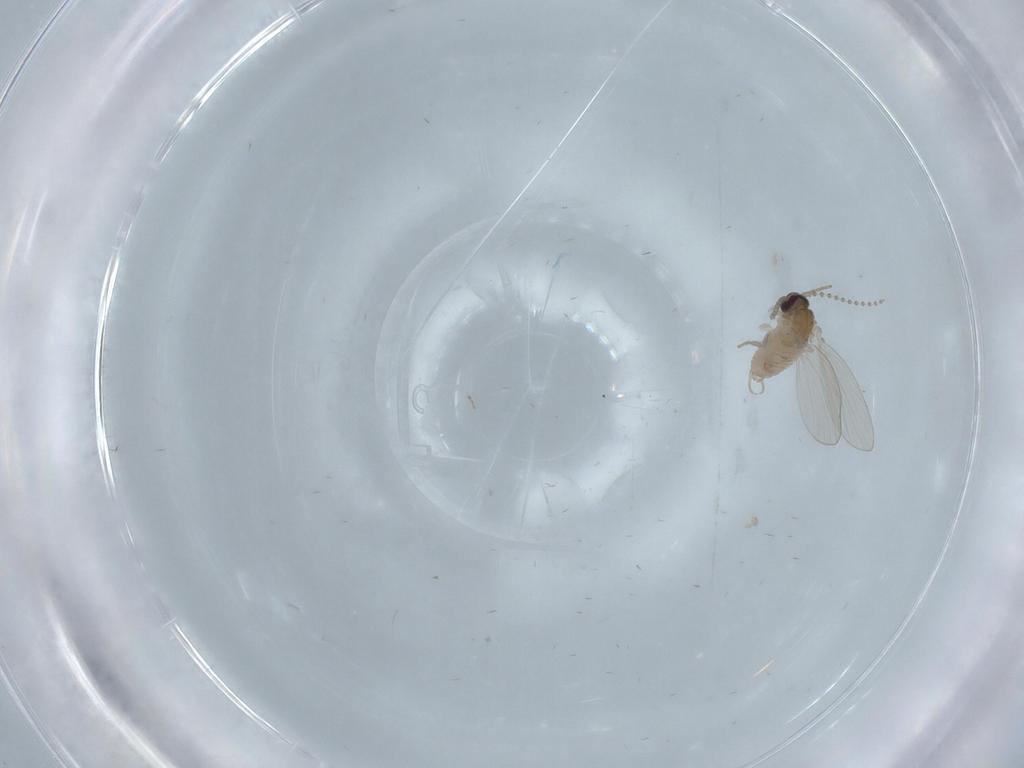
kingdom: Animalia
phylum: Arthropoda
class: Insecta
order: Diptera
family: Psychodidae
